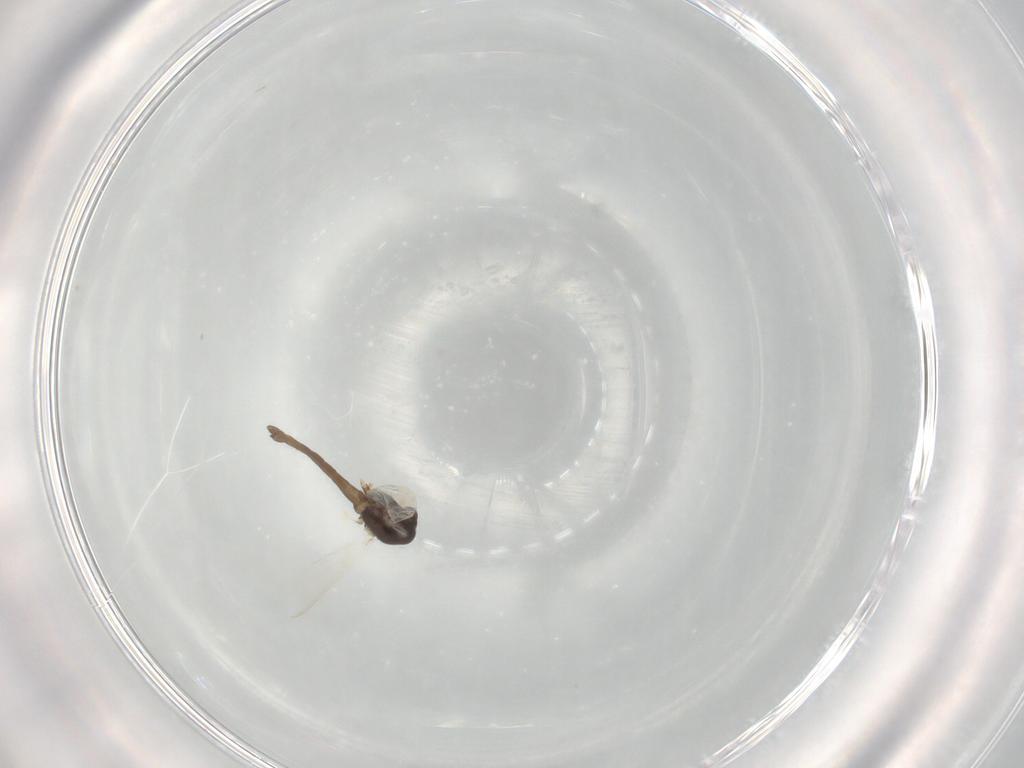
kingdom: Animalia
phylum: Arthropoda
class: Insecta
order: Diptera
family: Chironomidae
